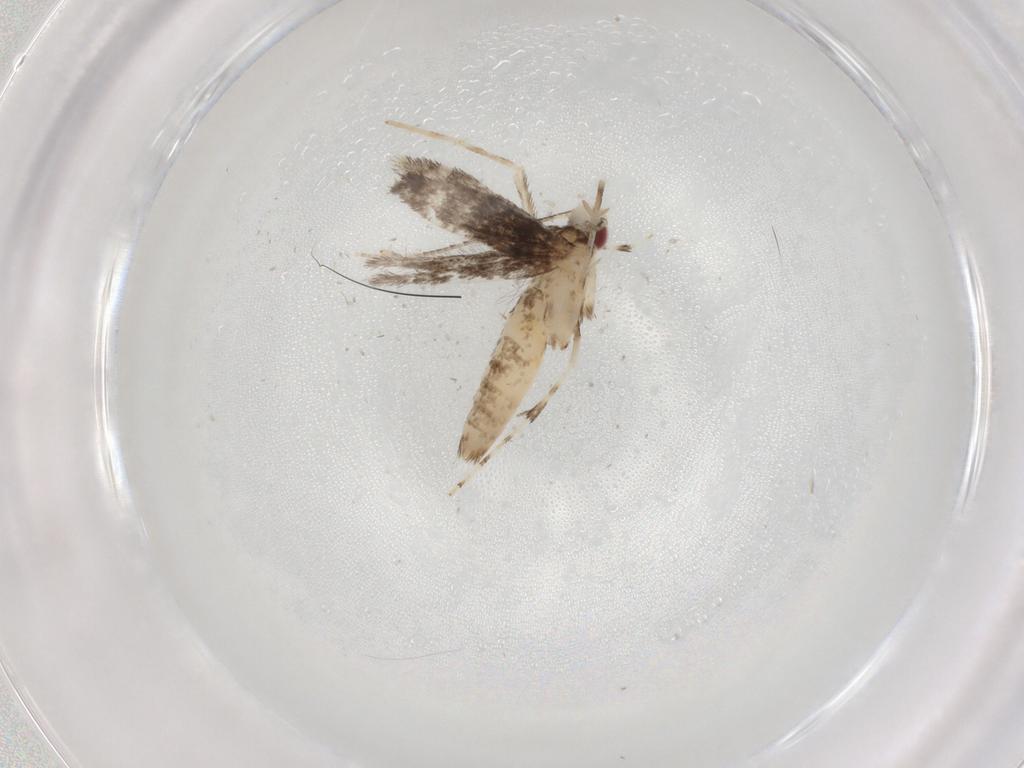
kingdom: Animalia
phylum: Arthropoda
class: Insecta
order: Lepidoptera
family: Gracillariidae
